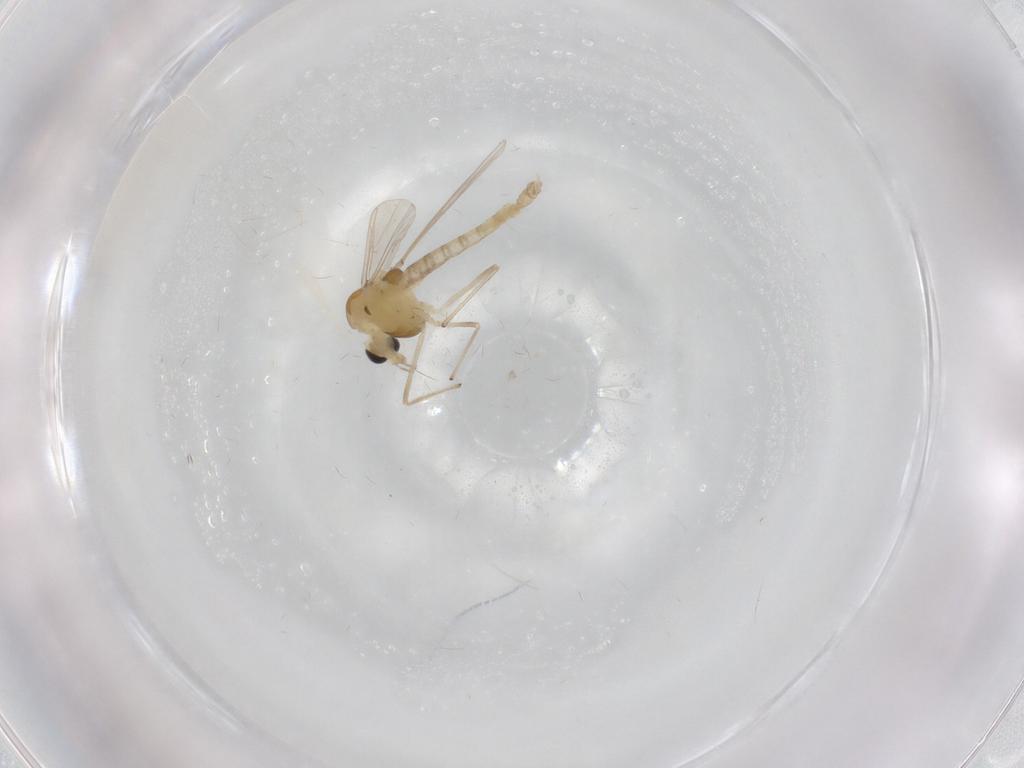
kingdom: Animalia
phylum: Arthropoda
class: Insecta
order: Diptera
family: Chironomidae
